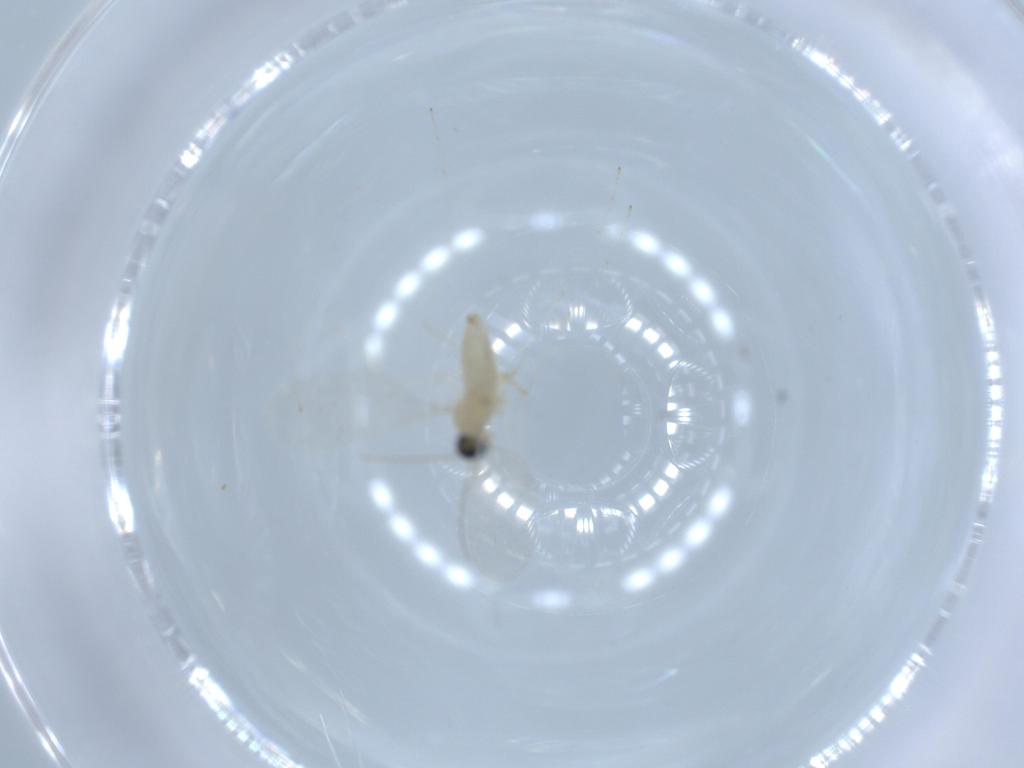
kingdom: Animalia
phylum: Arthropoda
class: Insecta
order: Diptera
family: Cecidomyiidae
